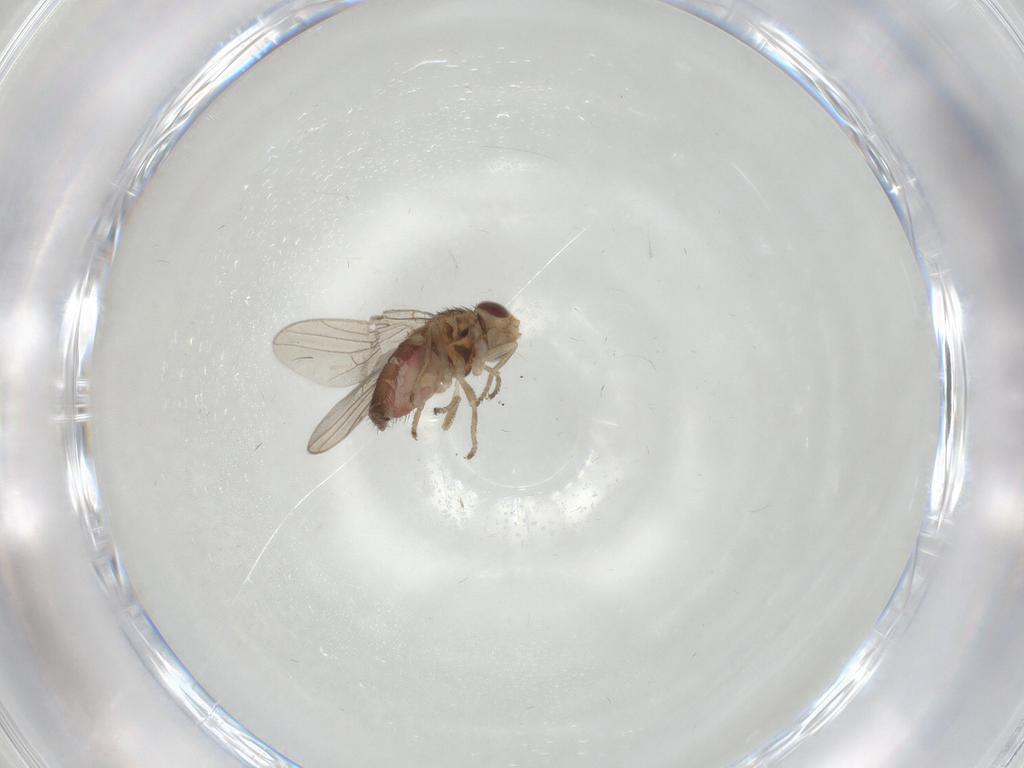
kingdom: Animalia
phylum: Arthropoda
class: Insecta
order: Diptera
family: Chloropidae
